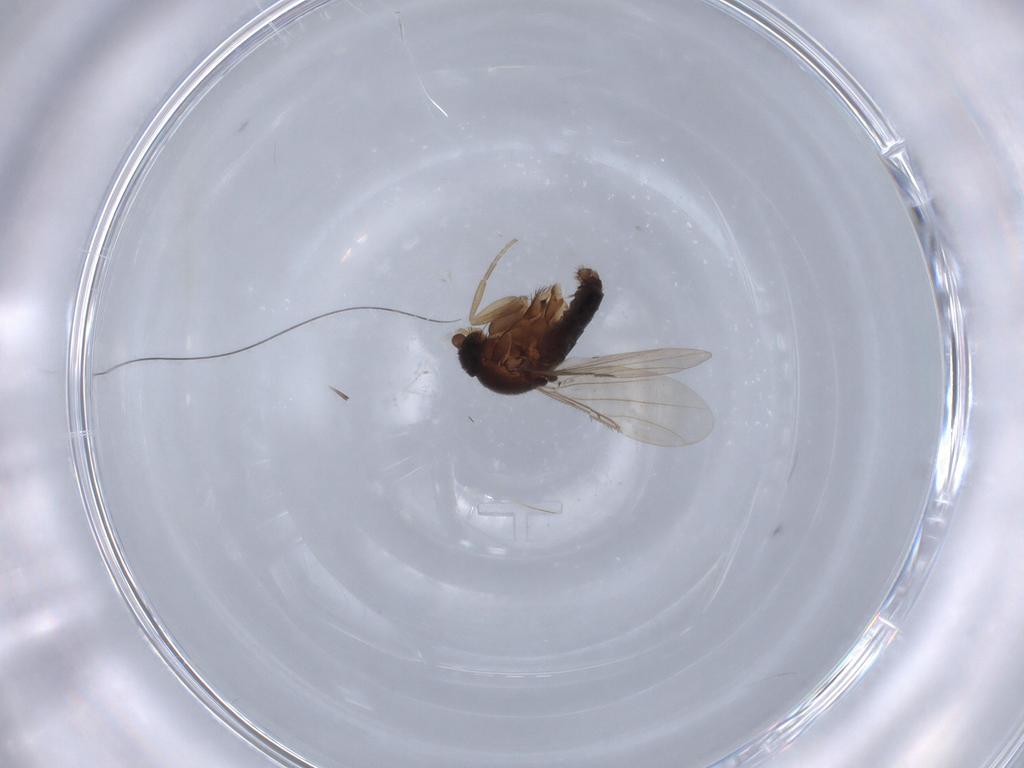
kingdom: Animalia
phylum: Arthropoda
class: Insecta
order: Diptera
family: Phoridae
